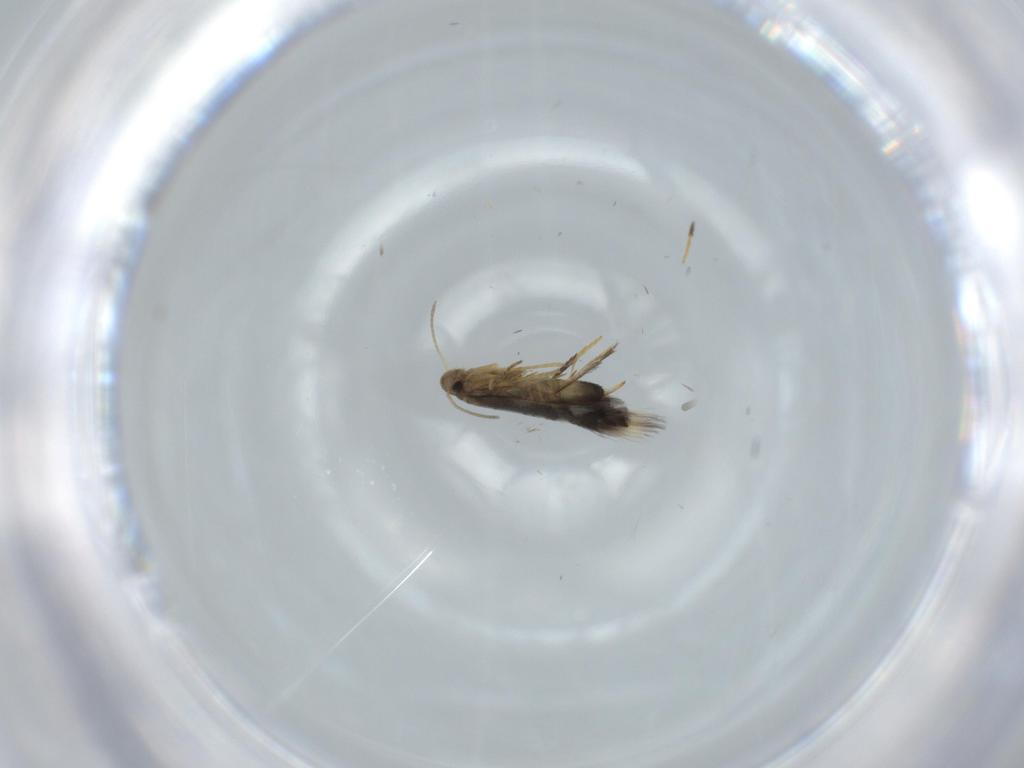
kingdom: Animalia
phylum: Arthropoda
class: Insecta
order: Lepidoptera
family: Heliozelidae
